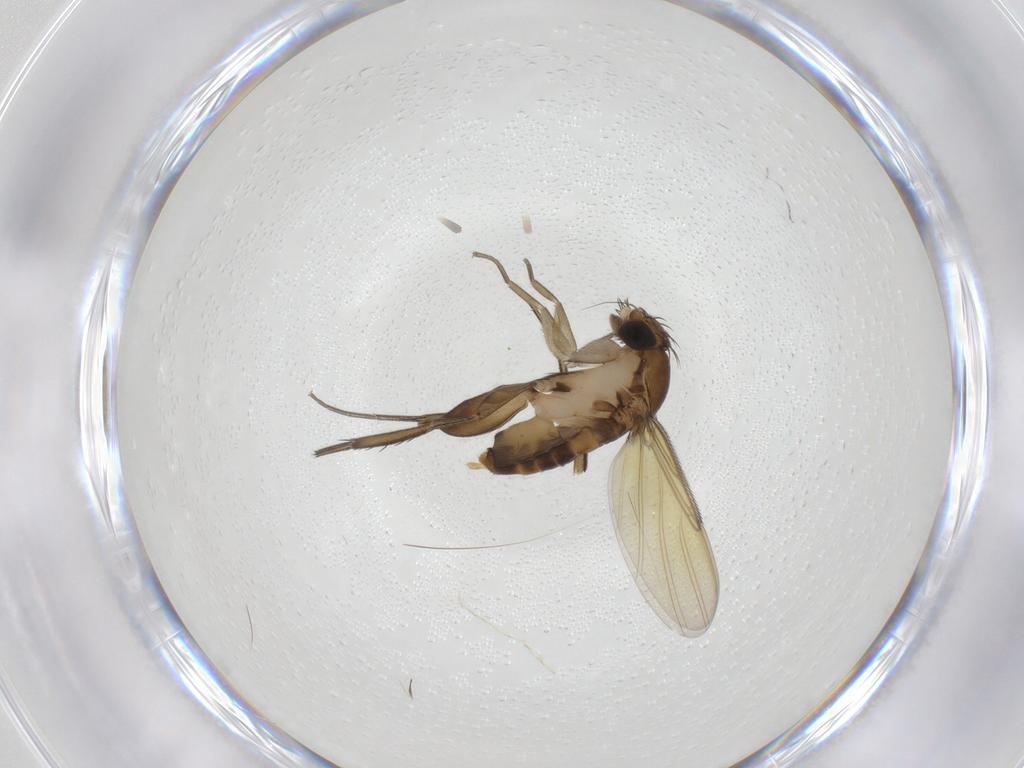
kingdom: Animalia
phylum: Arthropoda
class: Insecta
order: Diptera
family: Phoridae
